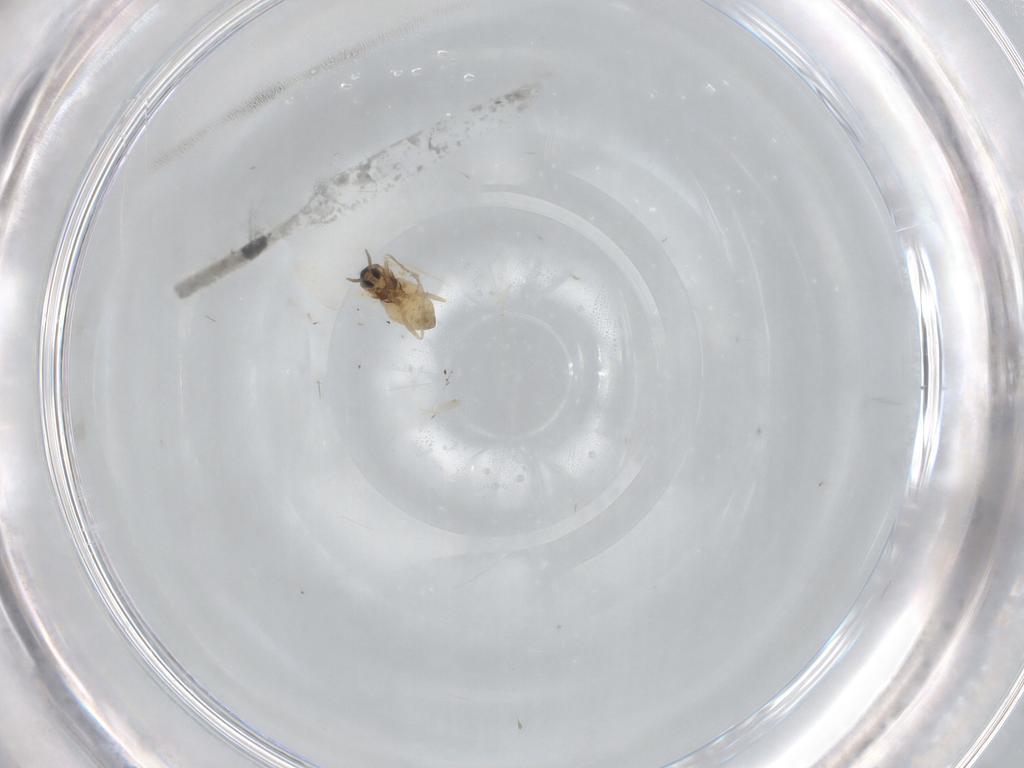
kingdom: Animalia
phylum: Arthropoda
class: Insecta
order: Diptera
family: Cecidomyiidae
